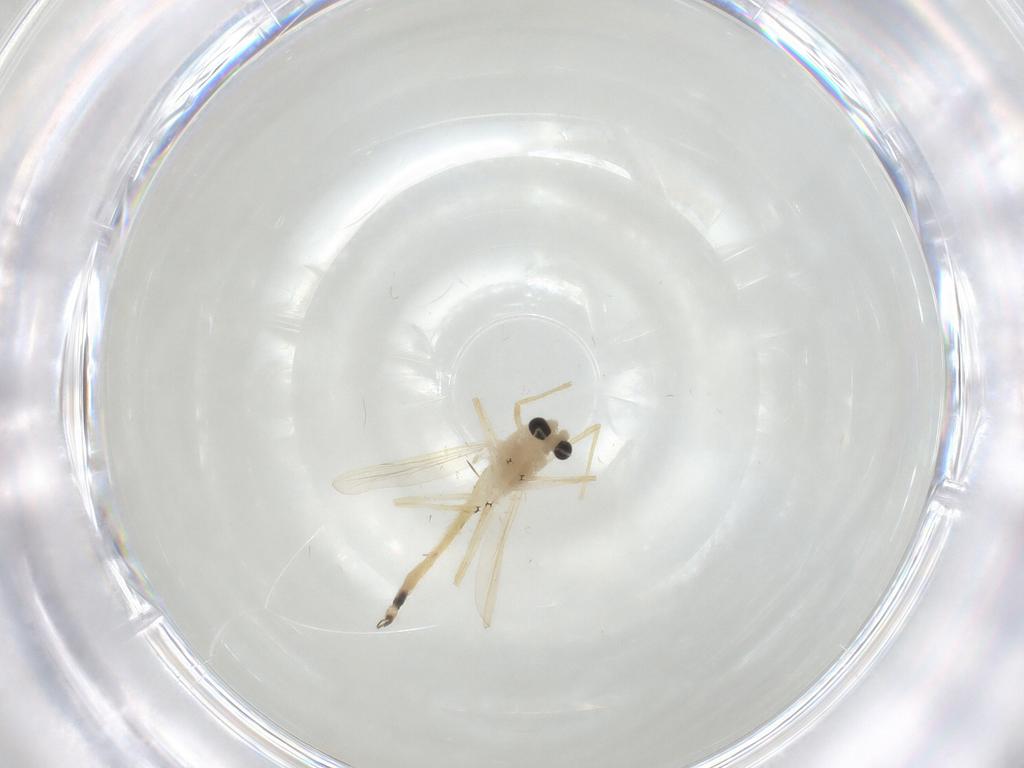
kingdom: Animalia
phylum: Arthropoda
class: Insecta
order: Diptera
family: Chironomidae
